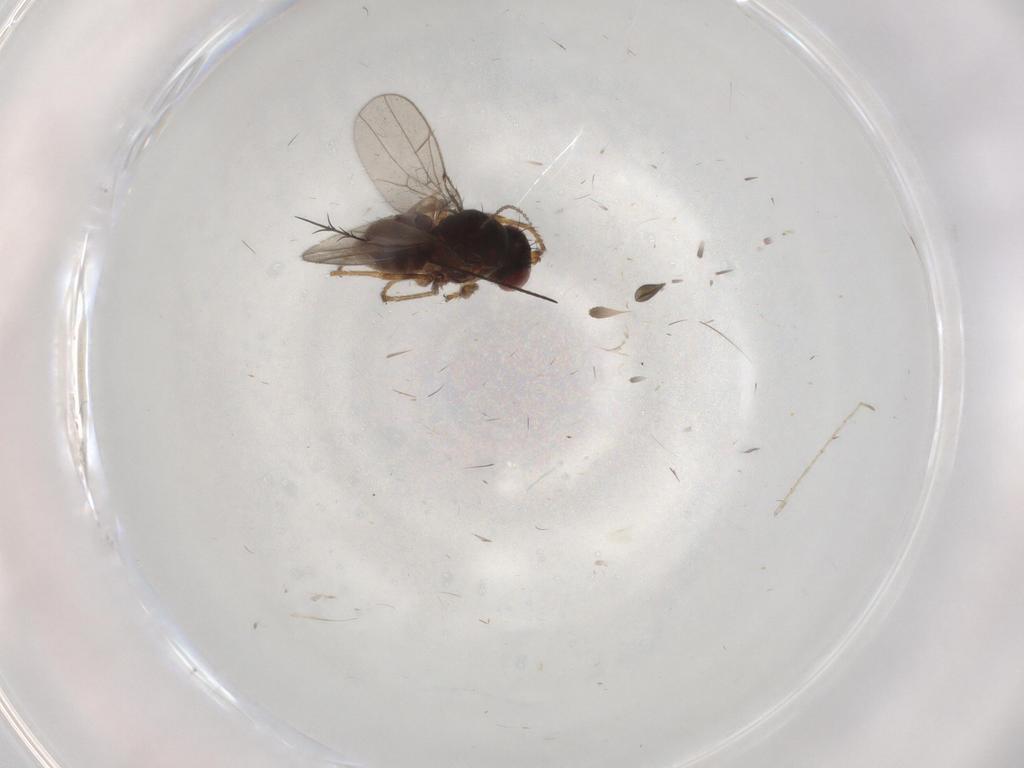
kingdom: Animalia
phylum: Arthropoda
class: Insecta
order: Diptera
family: Ephydridae
